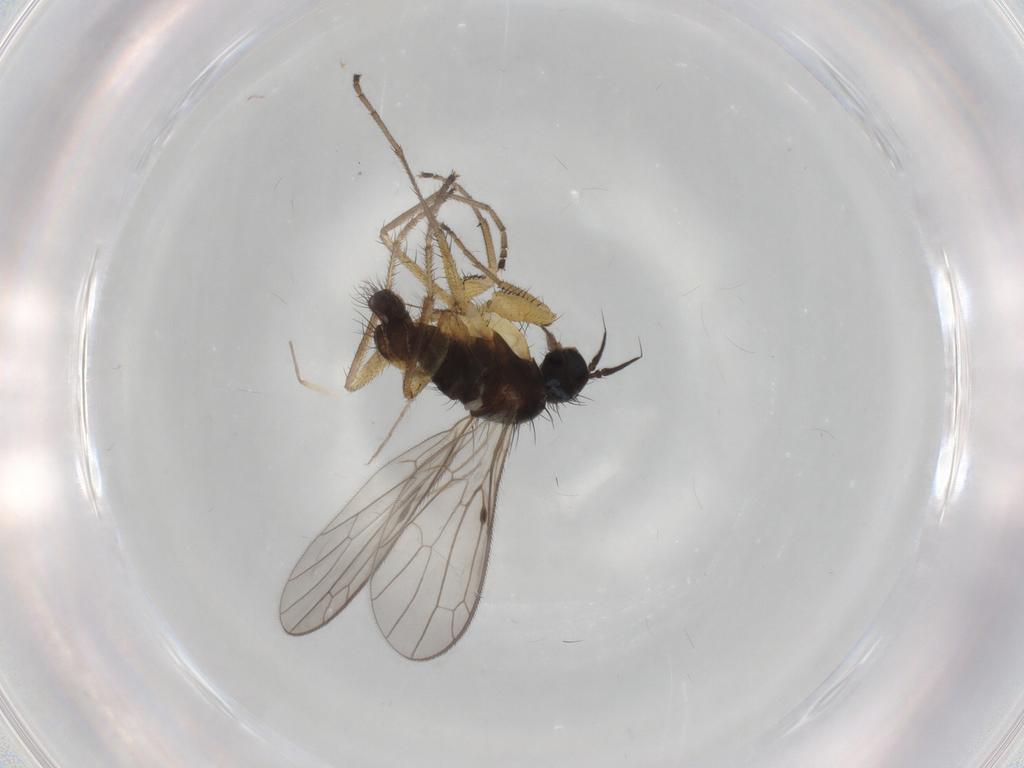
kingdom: Animalia
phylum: Arthropoda
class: Insecta
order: Diptera
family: Chironomidae
